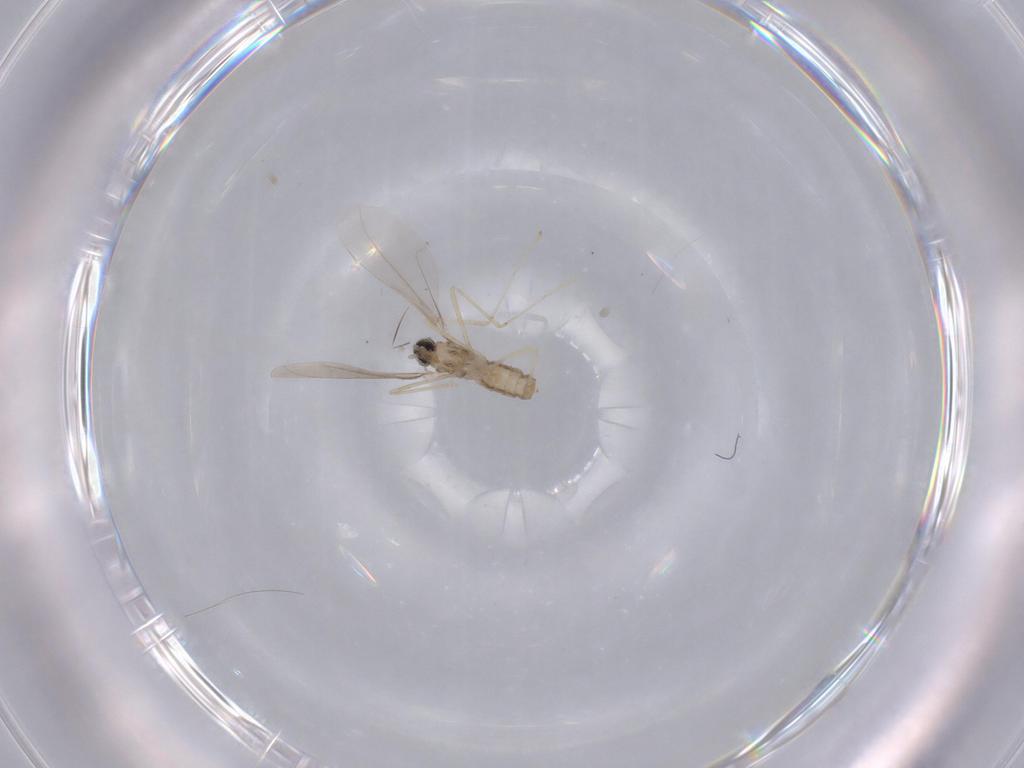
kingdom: Animalia
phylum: Arthropoda
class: Insecta
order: Diptera
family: Cecidomyiidae
